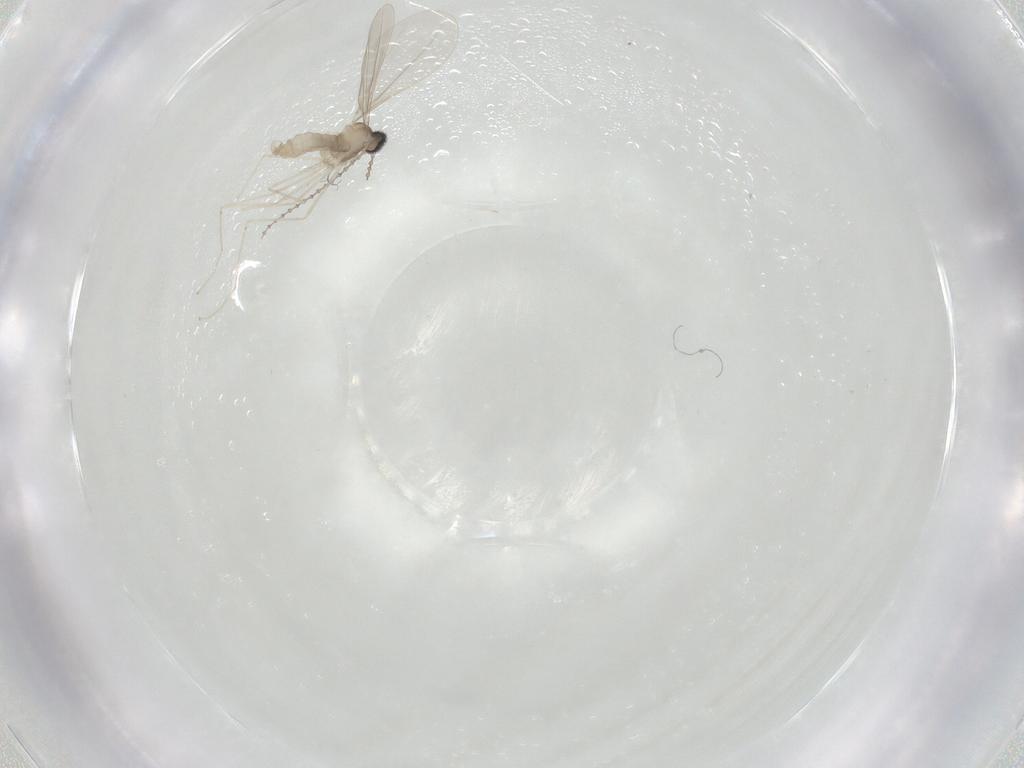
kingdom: Animalia
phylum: Arthropoda
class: Insecta
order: Diptera
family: Cecidomyiidae
